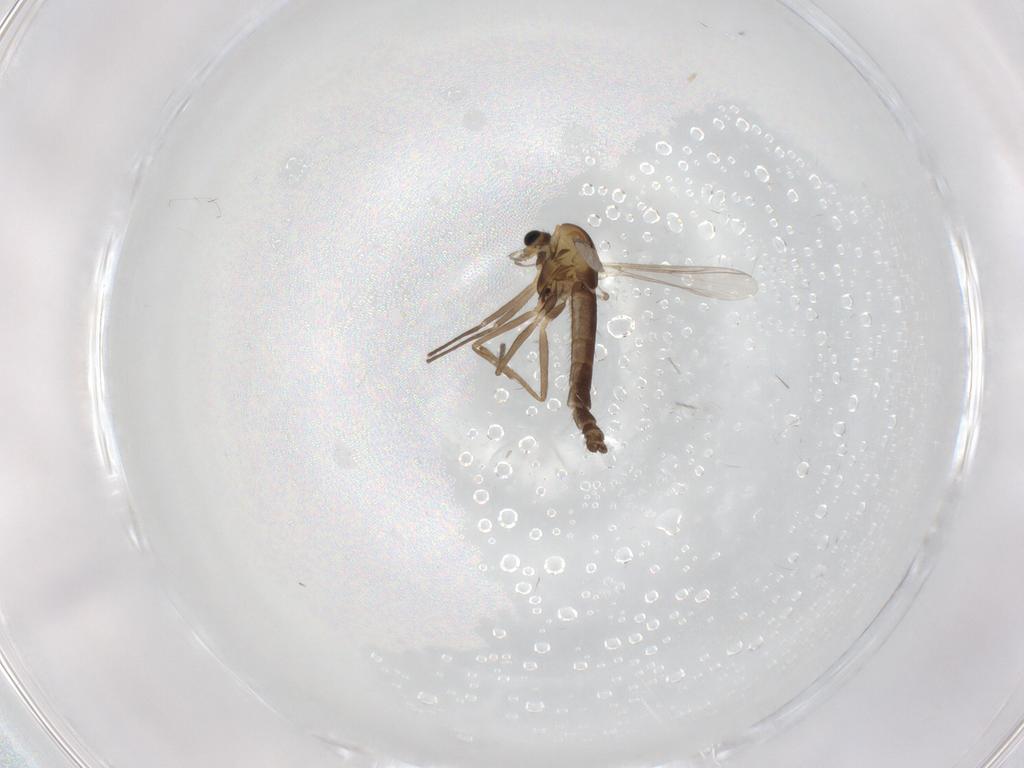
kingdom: Animalia
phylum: Arthropoda
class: Insecta
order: Diptera
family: Chironomidae
